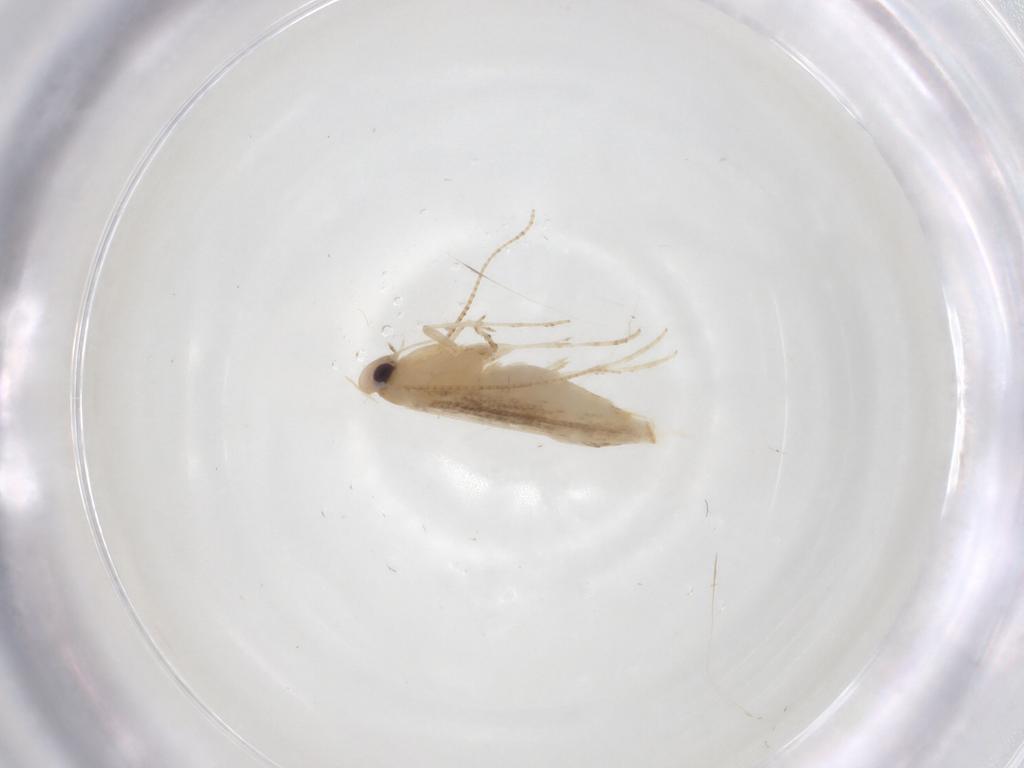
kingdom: Animalia
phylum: Arthropoda
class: Insecta
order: Lepidoptera
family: Gracillariidae
